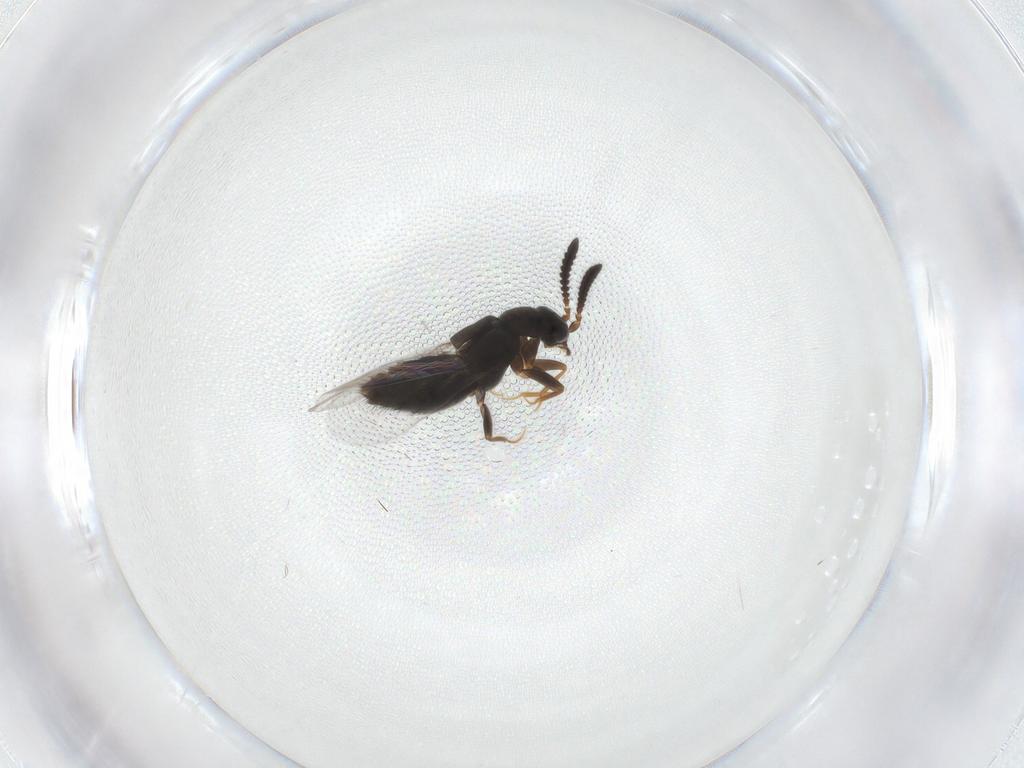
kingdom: Animalia
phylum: Arthropoda
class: Insecta
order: Coleoptera
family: Staphylinidae
